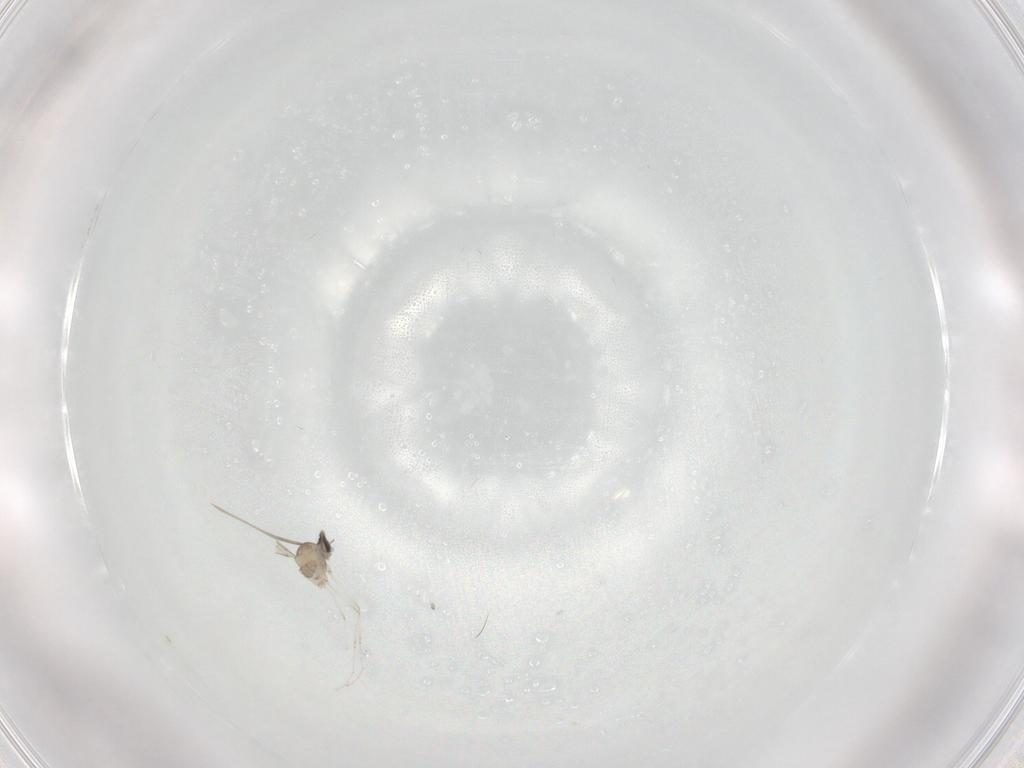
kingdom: Animalia
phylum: Arthropoda
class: Insecta
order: Diptera
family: Cecidomyiidae
